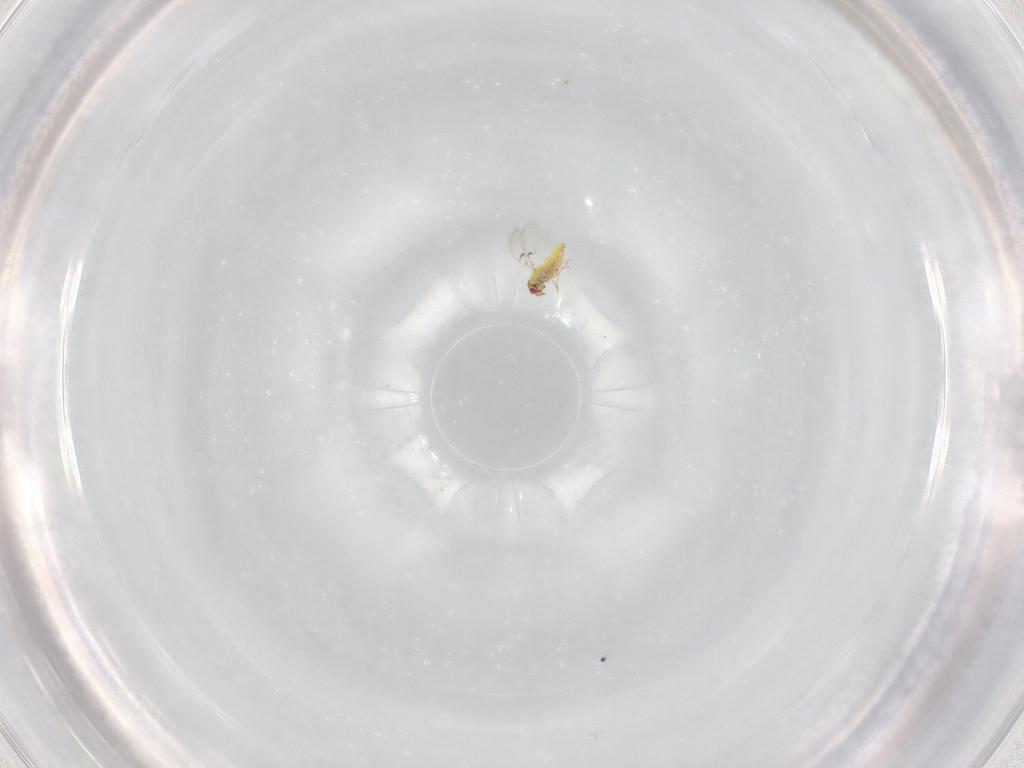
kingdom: Animalia
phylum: Arthropoda
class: Insecta
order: Hymenoptera
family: Trichogrammatidae
